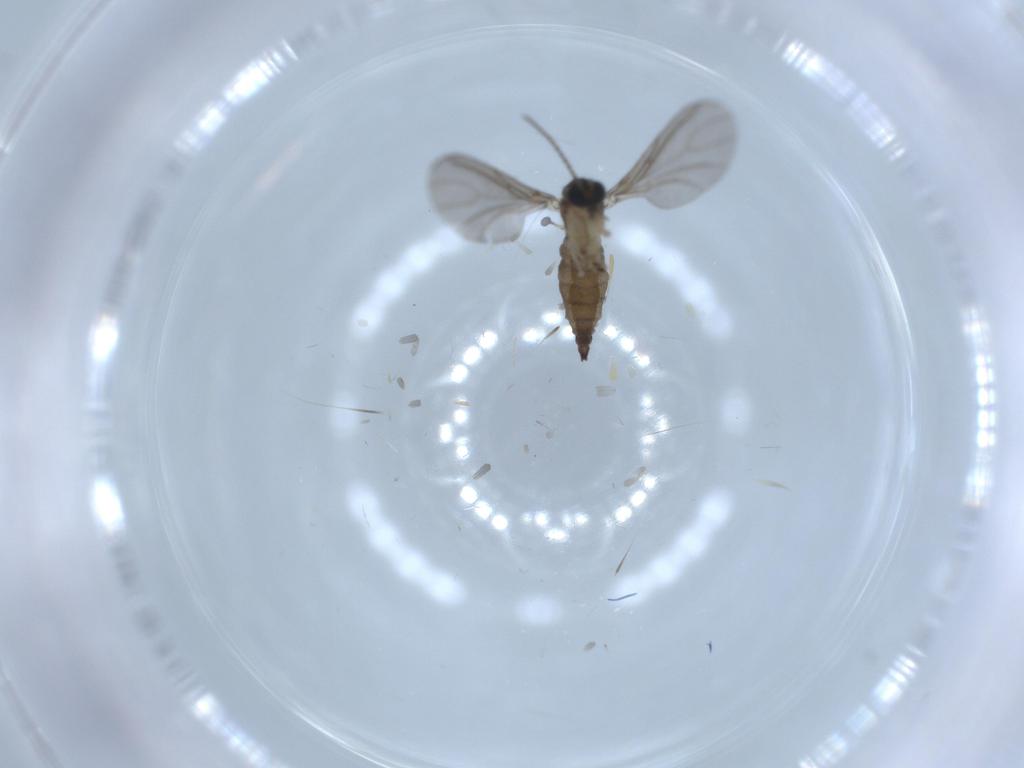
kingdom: Animalia
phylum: Arthropoda
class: Insecta
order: Diptera
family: Sciaridae
